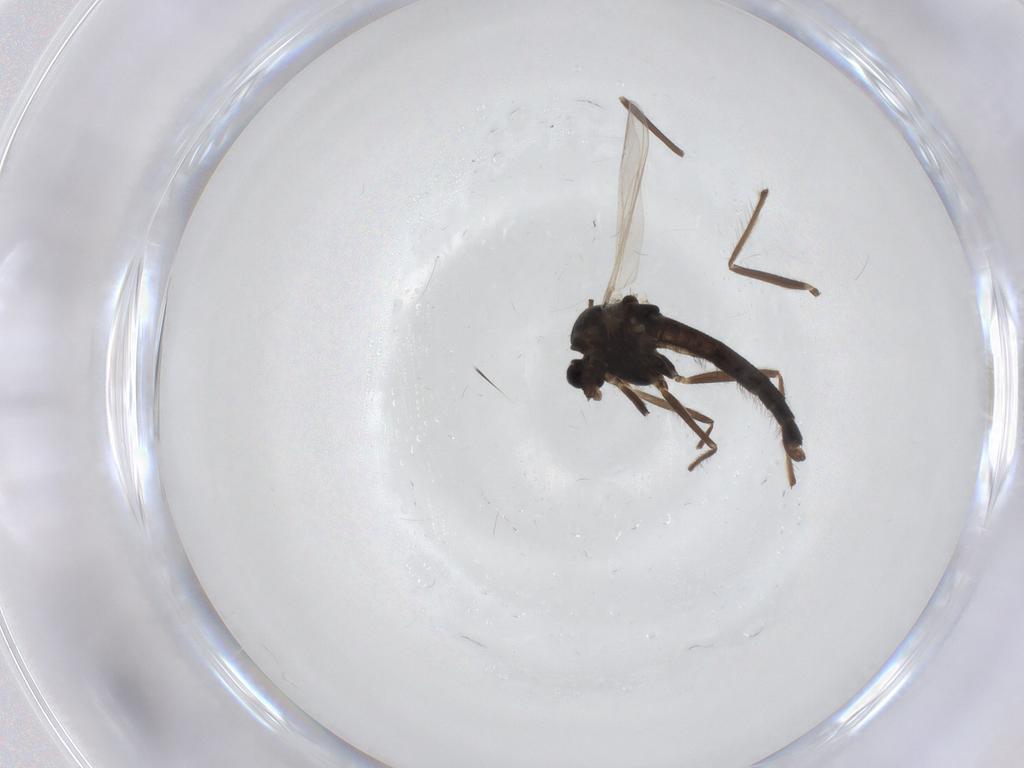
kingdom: Animalia
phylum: Arthropoda
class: Insecta
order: Diptera
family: Chironomidae
